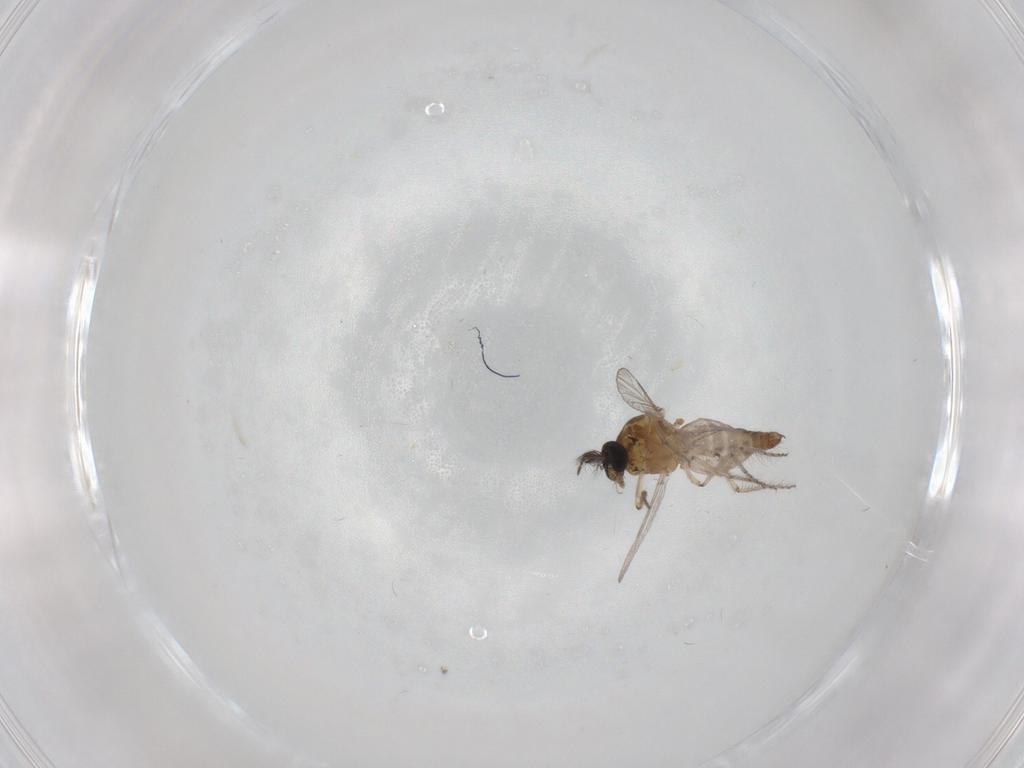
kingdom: Animalia
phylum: Arthropoda
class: Insecta
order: Diptera
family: Ceratopogonidae
